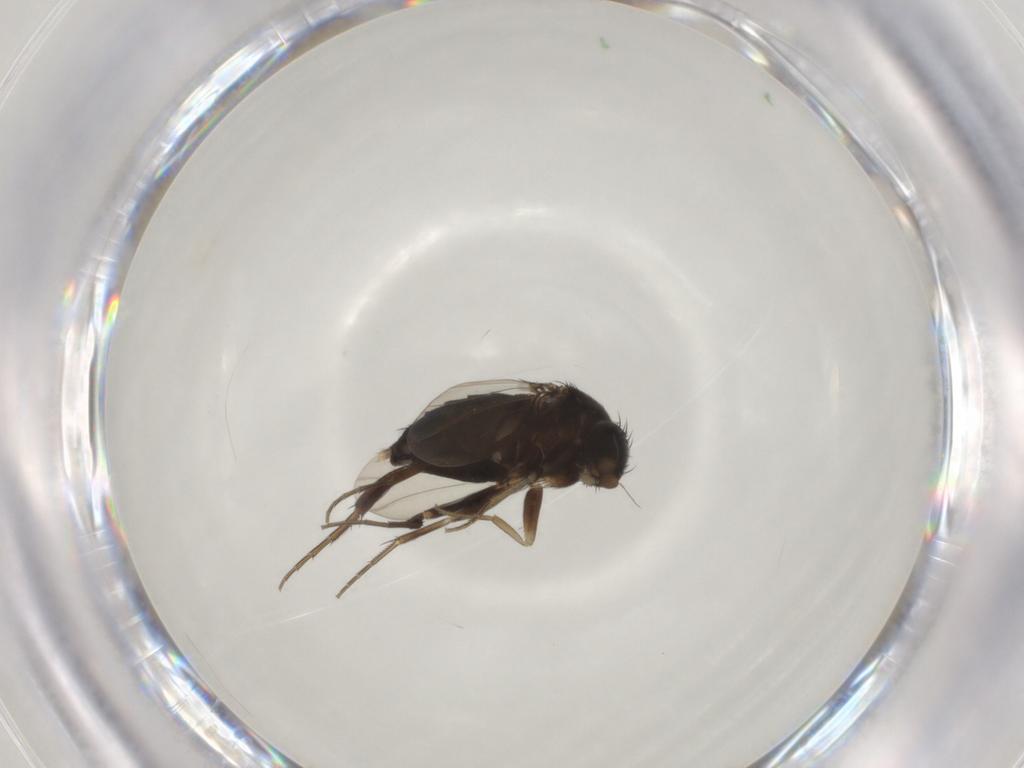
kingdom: Animalia
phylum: Arthropoda
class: Insecta
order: Diptera
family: Phoridae
